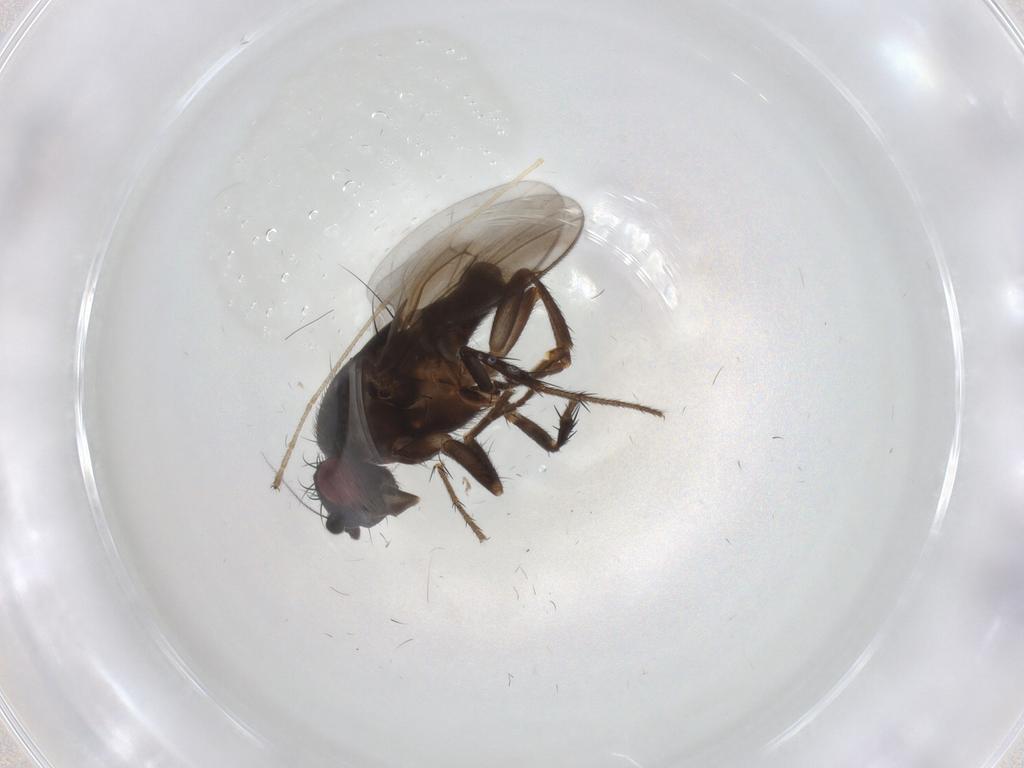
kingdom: Animalia
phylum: Arthropoda
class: Insecta
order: Diptera
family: Sphaeroceridae
